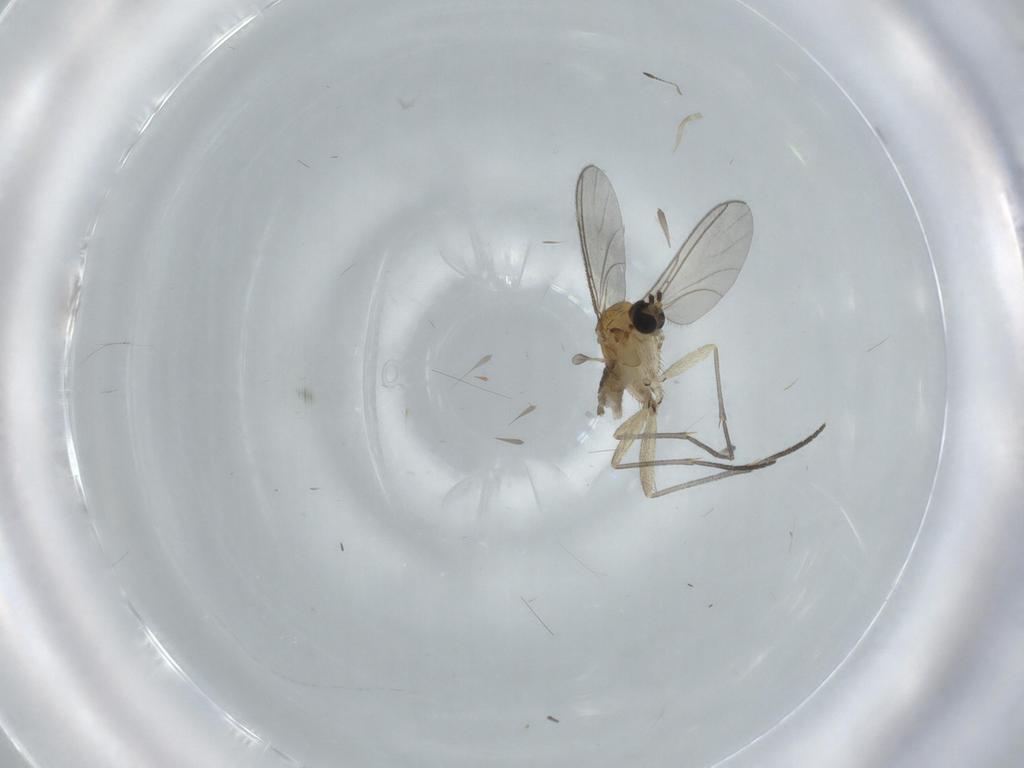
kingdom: Animalia
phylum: Arthropoda
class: Insecta
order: Diptera
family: Sciaridae
